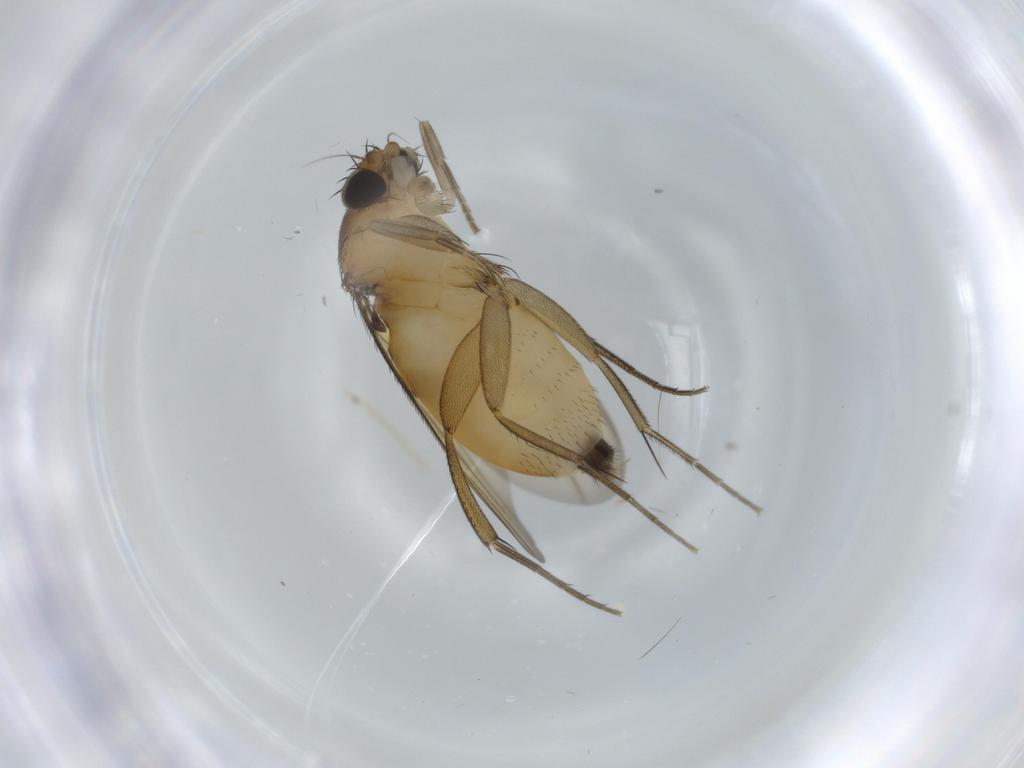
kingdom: Animalia
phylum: Arthropoda
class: Insecta
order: Diptera
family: Phoridae
